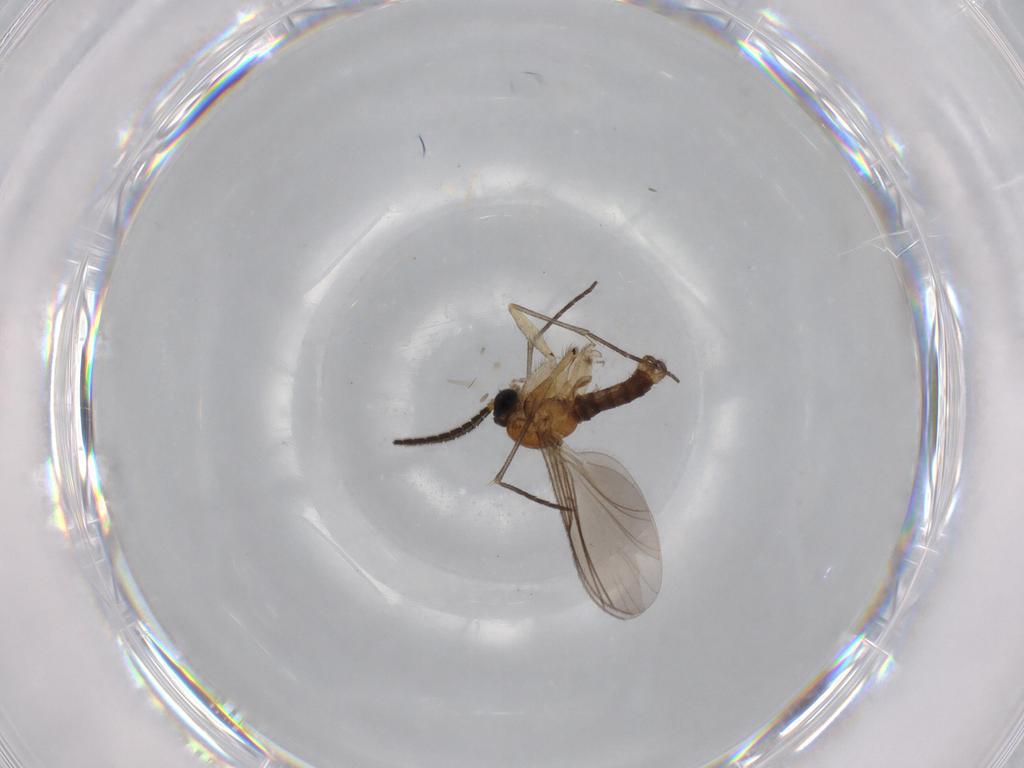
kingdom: Animalia
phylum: Arthropoda
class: Insecta
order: Diptera
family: Sciaridae
